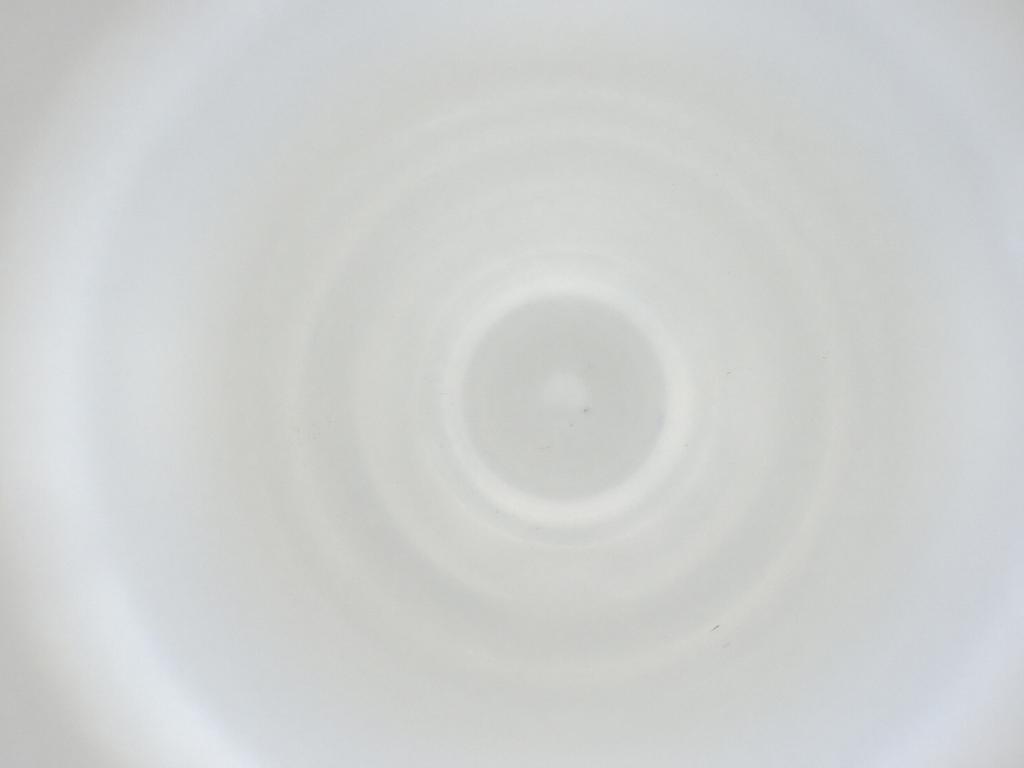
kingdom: Animalia
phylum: Arthropoda
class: Insecta
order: Diptera
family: Cecidomyiidae
